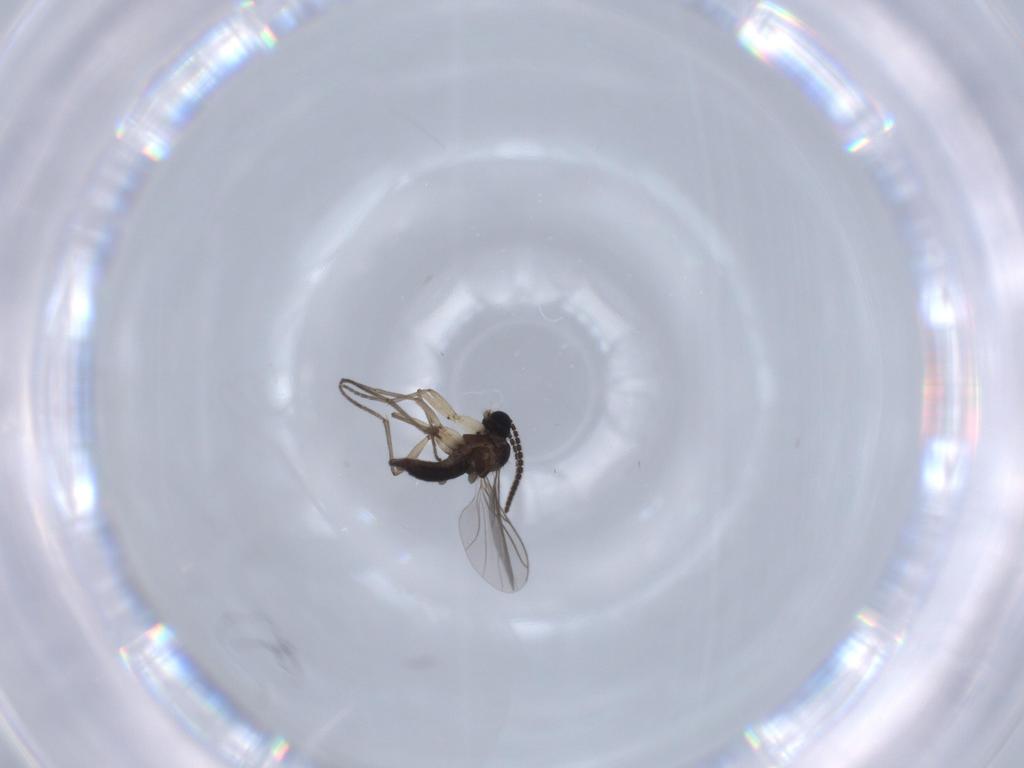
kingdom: Animalia
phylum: Arthropoda
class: Insecta
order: Diptera
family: Sciaridae
